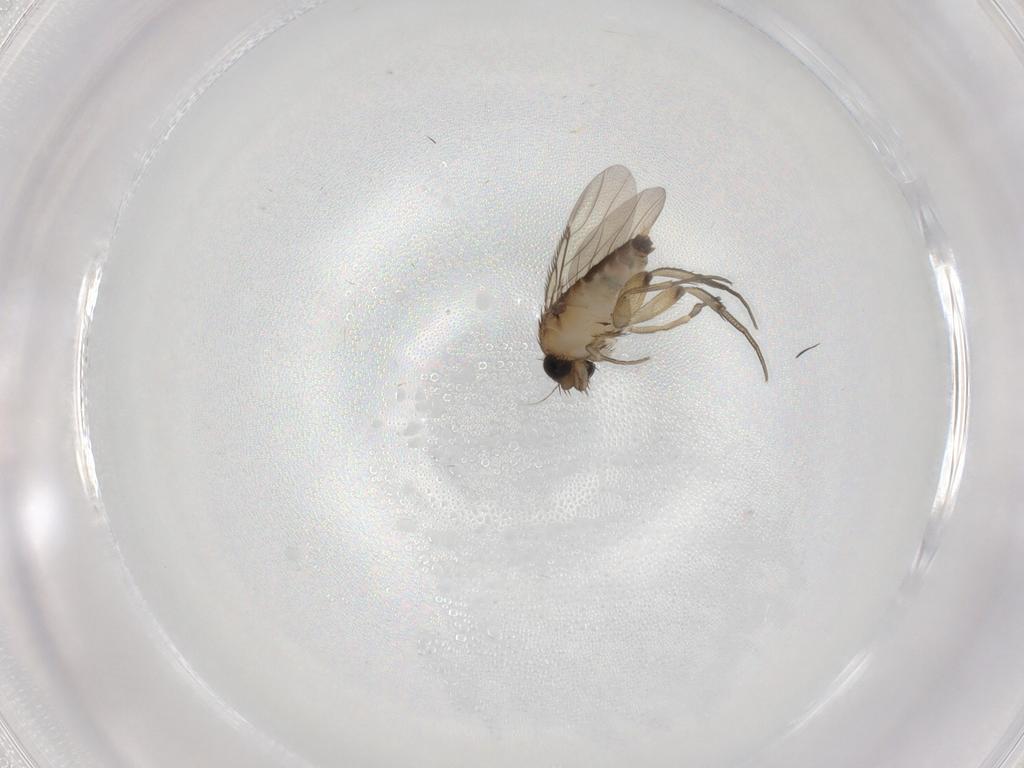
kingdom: Animalia
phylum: Arthropoda
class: Insecta
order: Diptera
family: Phoridae
